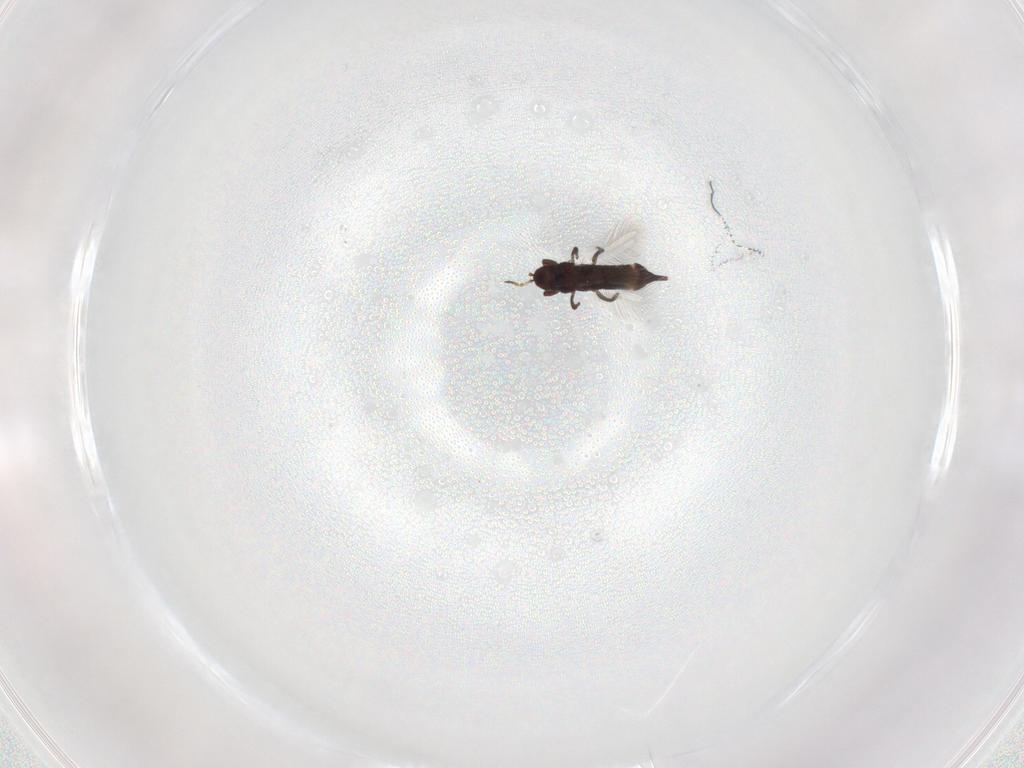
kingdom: Animalia
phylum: Arthropoda
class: Insecta
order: Thysanoptera
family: Phlaeothripidae
